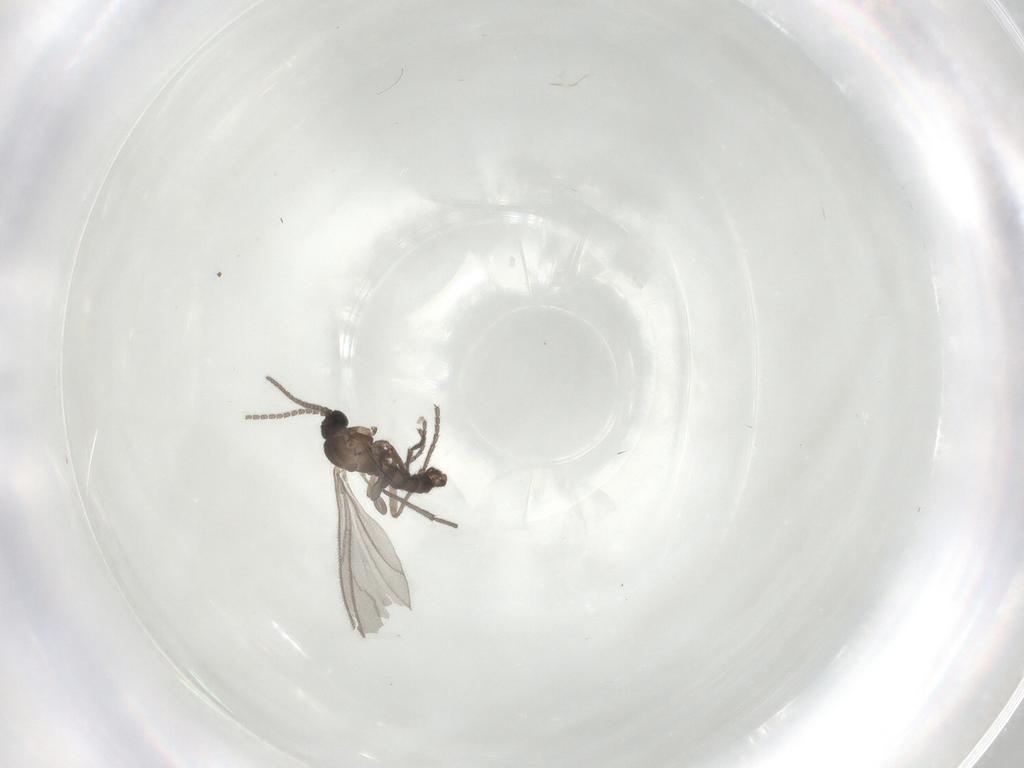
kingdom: Animalia
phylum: Arthropoda
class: Insecta
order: Diptera
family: Sciaridae
